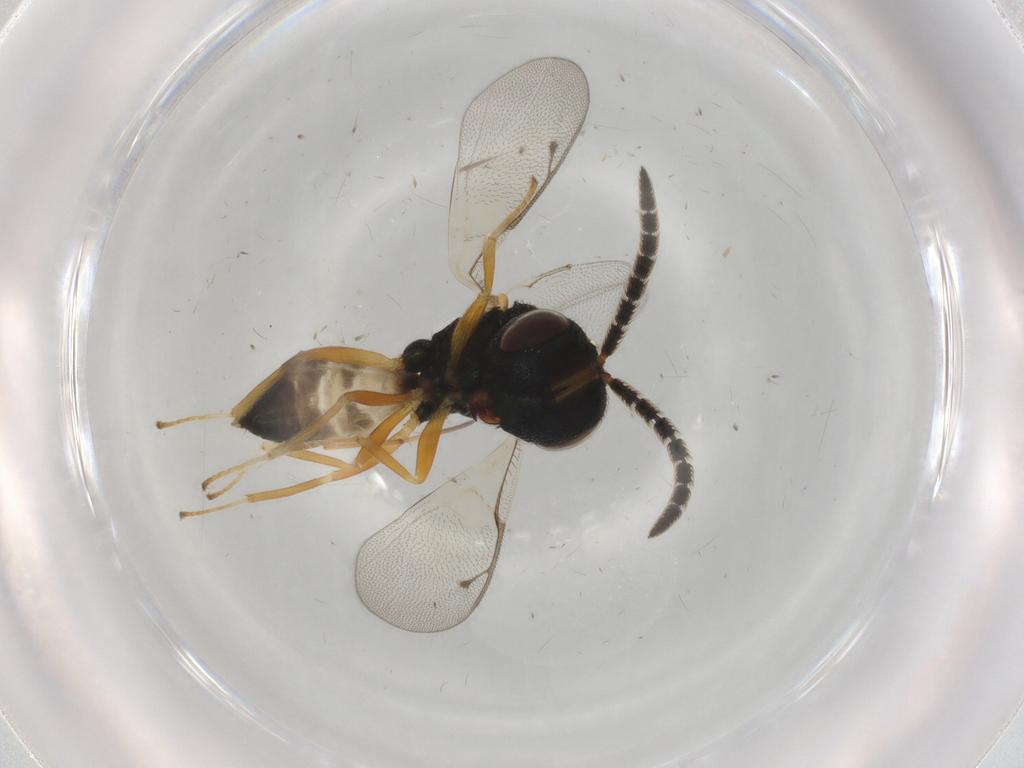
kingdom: Animalia
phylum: Arthropoda
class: Insecta
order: Hymenoptera
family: Pteromalidae
